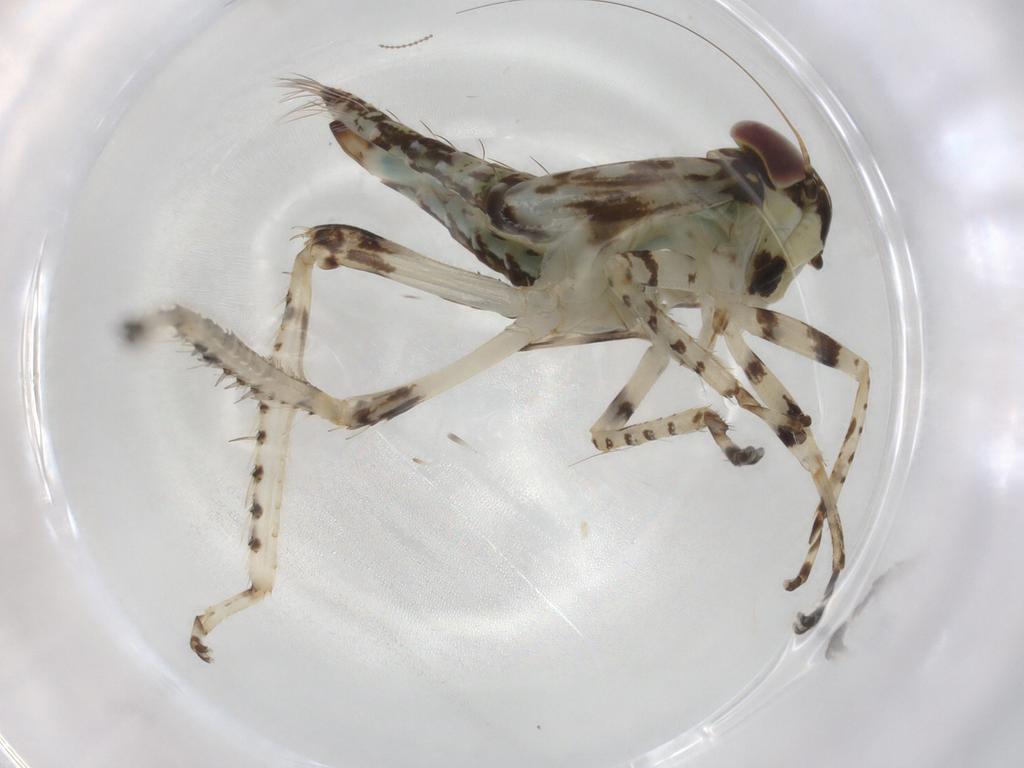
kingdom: Animalia
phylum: Arthropoda
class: Insecta
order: Hemiptera
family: Cicadellidae
